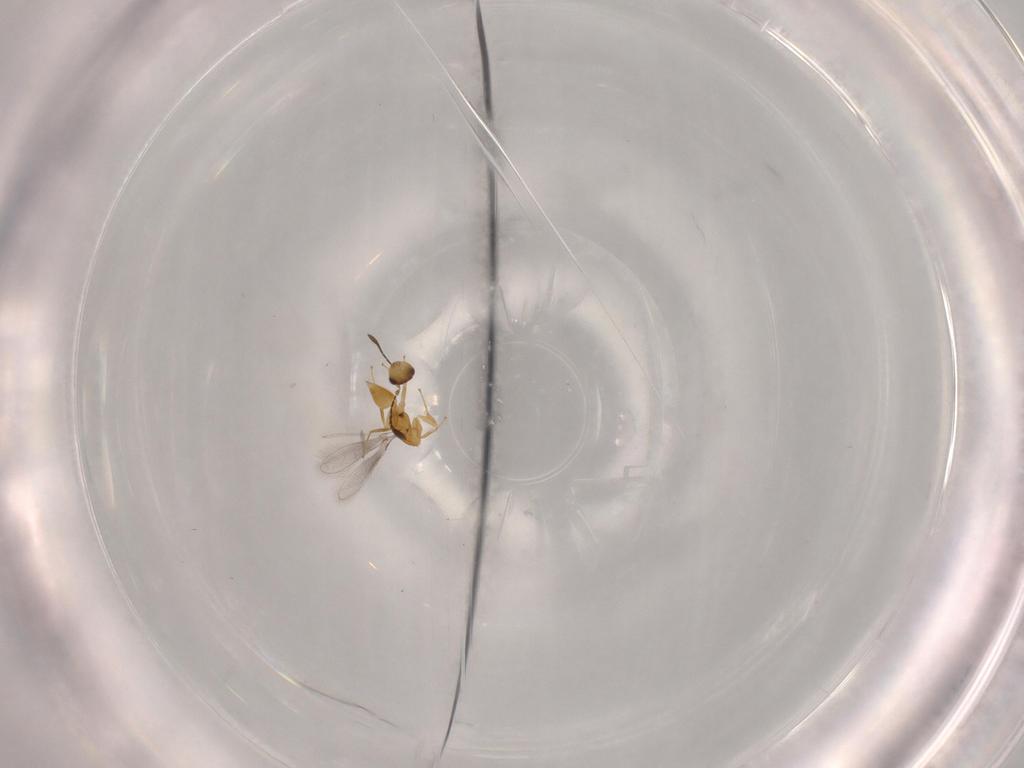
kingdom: Animalia
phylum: Arthropoda
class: Insecta
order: Hymenoptera
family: Mymaridae
